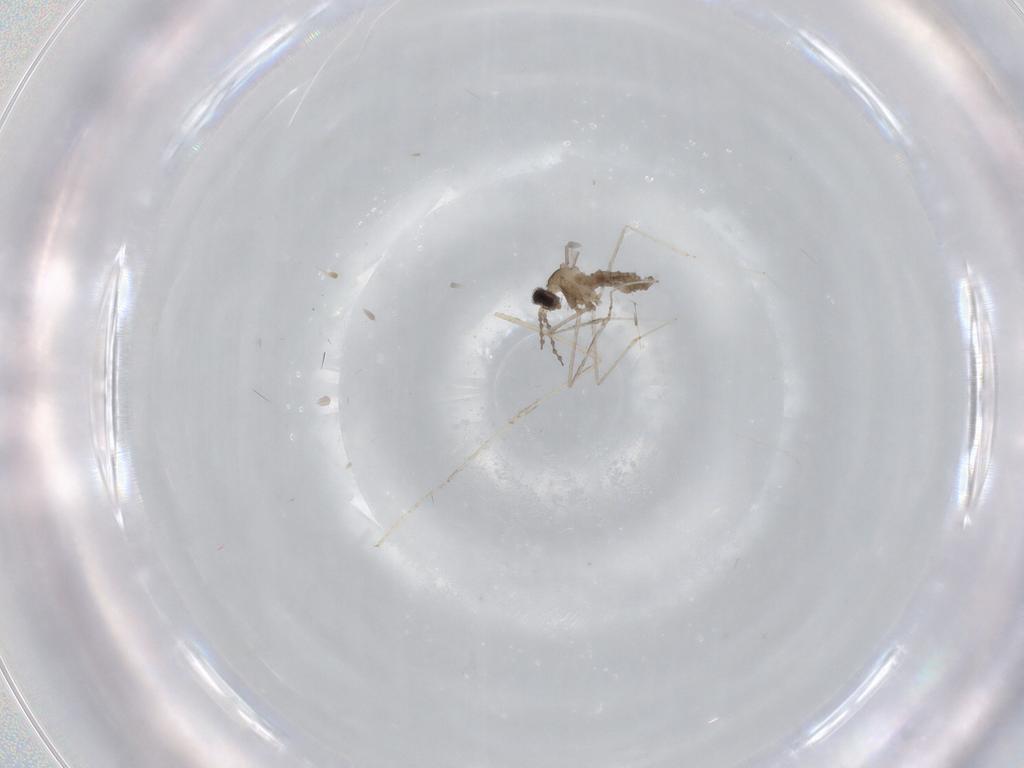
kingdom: Animalia
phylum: Arthropoda
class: Insecta
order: Diptera
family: Cecidomyiidae
